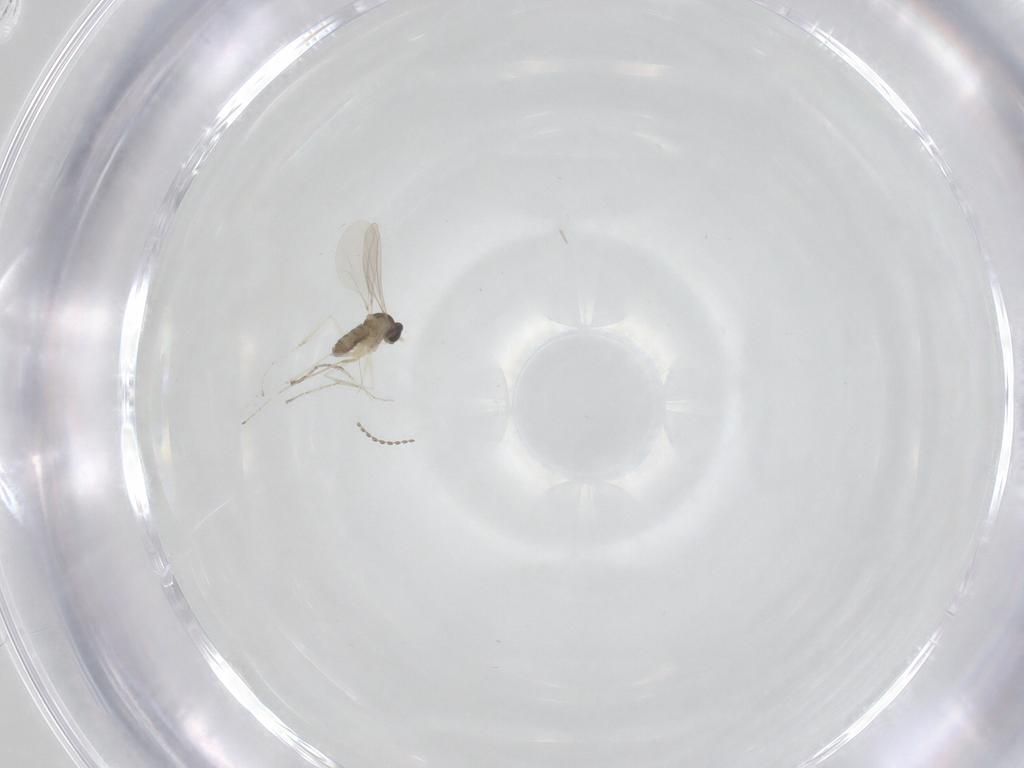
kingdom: Animalia
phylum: Arthropoda
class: Insecta
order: Diptera
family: Cecidomyiidae
